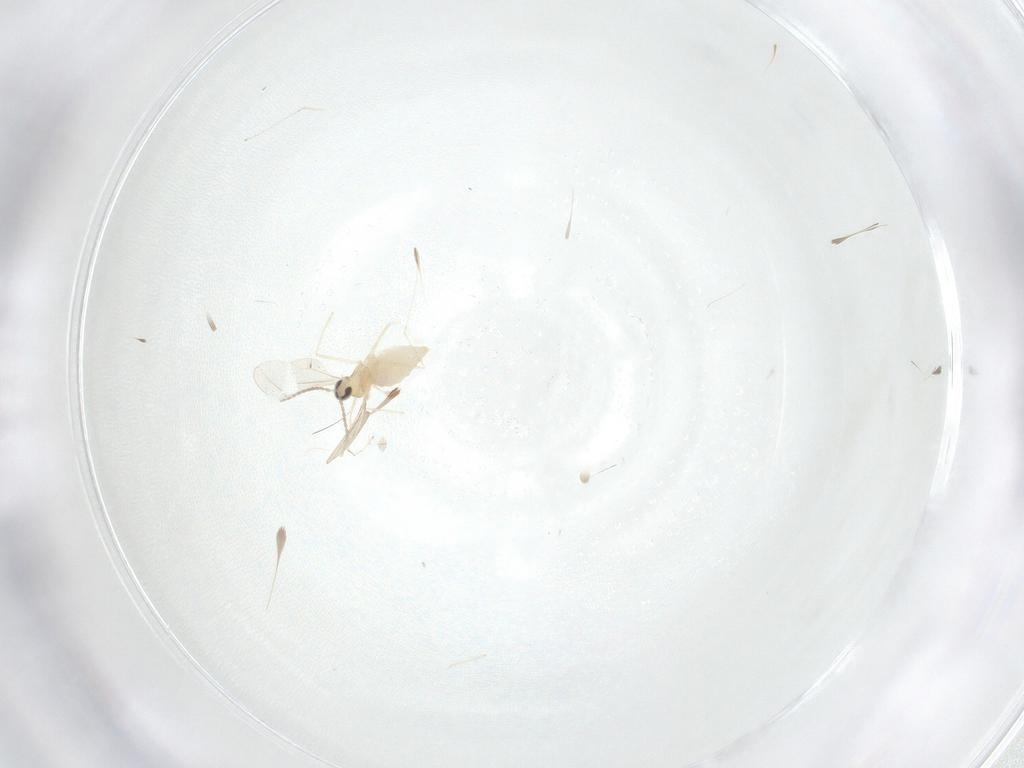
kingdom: Animalia
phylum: Arthropoda
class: Insecta
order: Diptera
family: Cecidomyiidae
